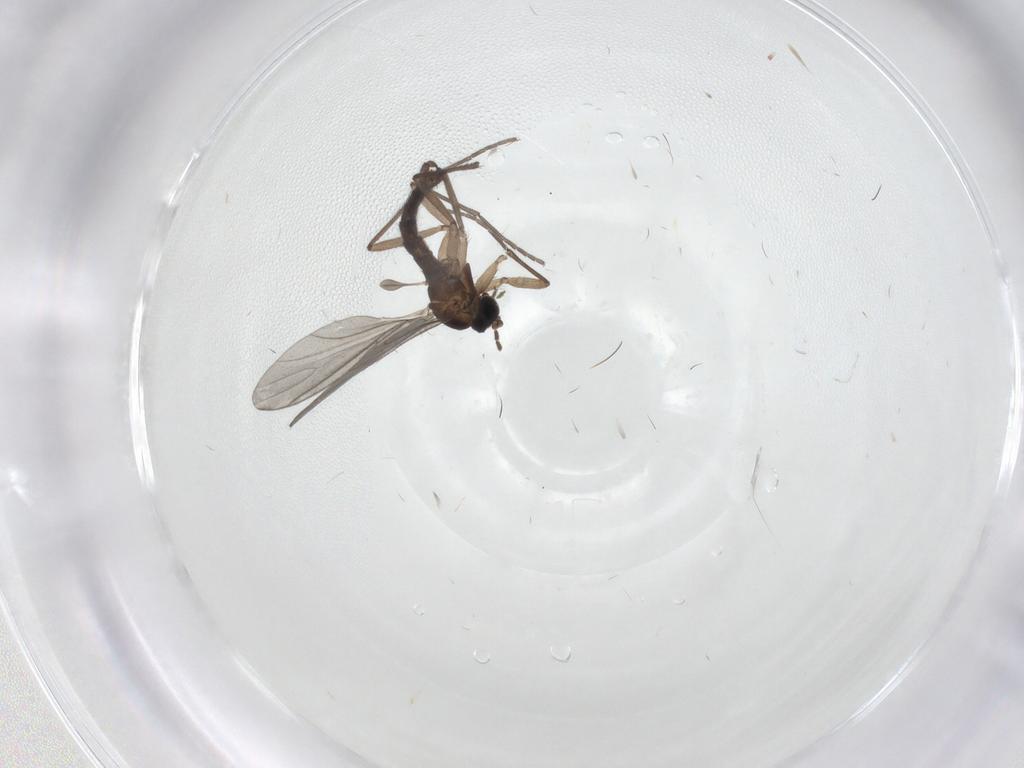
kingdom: Animalia
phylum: Arthropoda
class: Insecta
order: Diptera
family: Sciaridae
